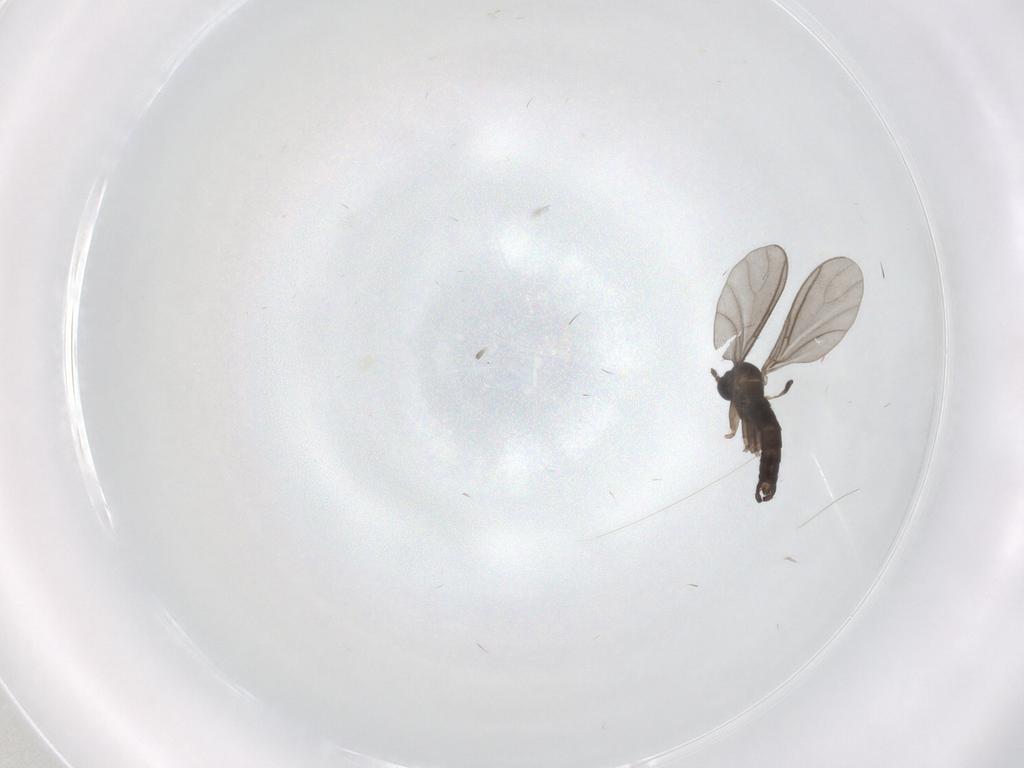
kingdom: Animalia
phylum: Arthropoda
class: Insecta
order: Diptera
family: Sciaridae
